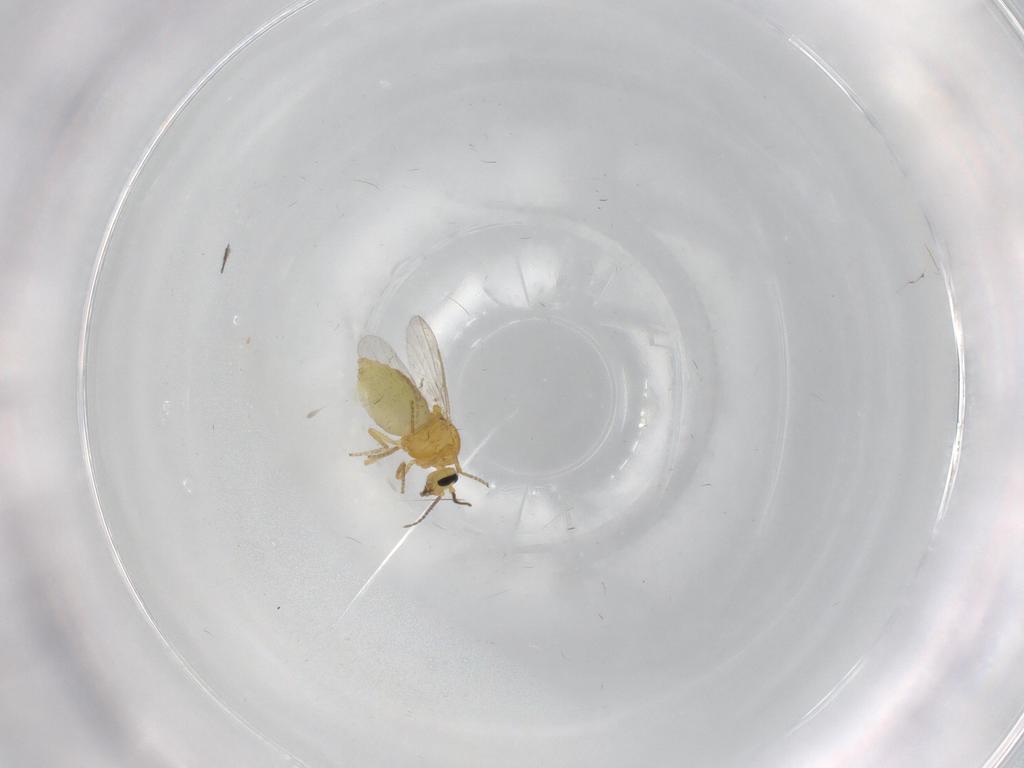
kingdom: Animalia
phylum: Arthropoda
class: Insecta
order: Diptera
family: Ceratopogonidae
